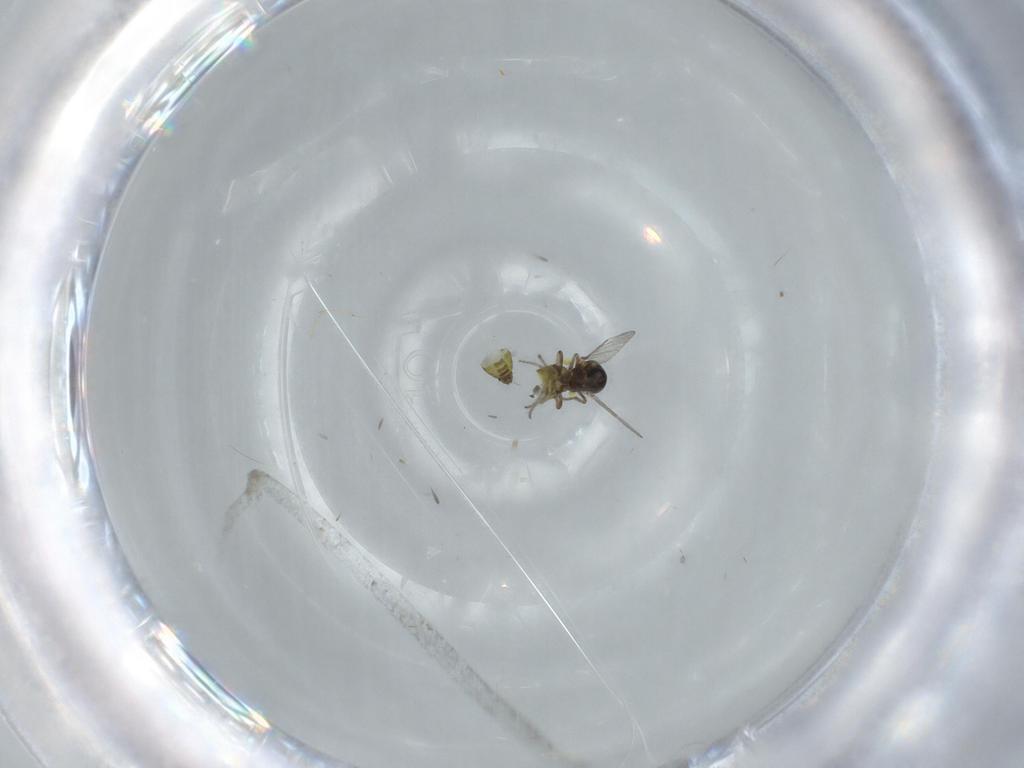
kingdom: Animalia
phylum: Arthropoda
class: Insecta
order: Diptera
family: Ceratopogonidae
